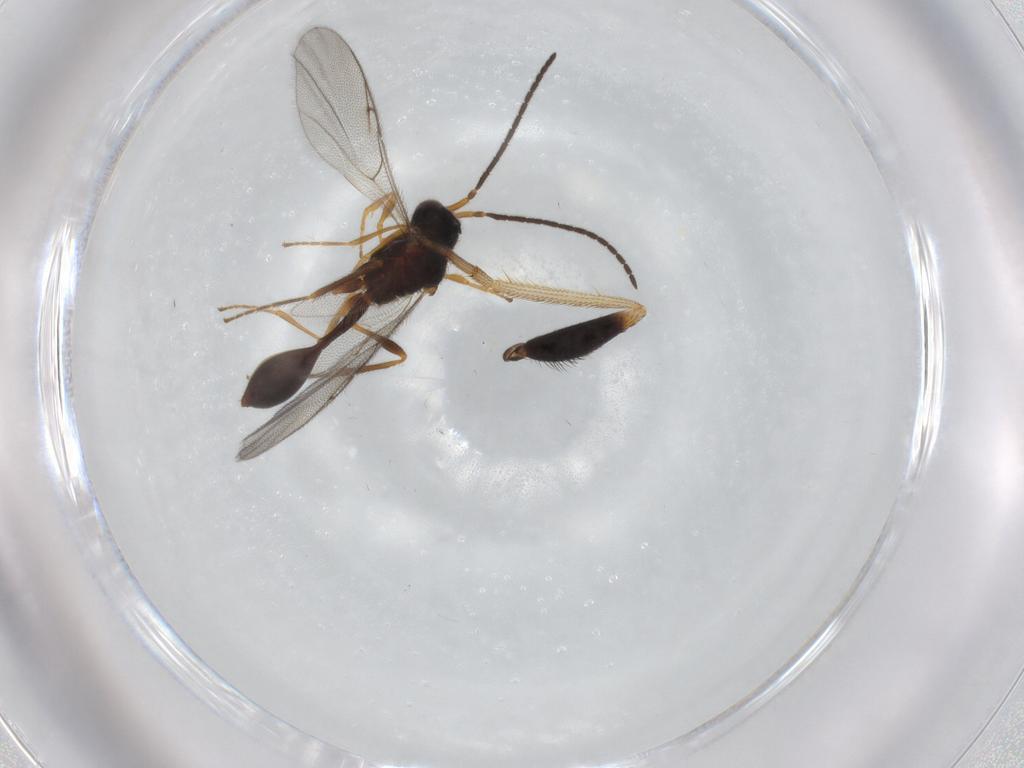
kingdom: Animalia
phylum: Arthropoda
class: Insecta
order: Hymenoptera
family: Diapriidae
